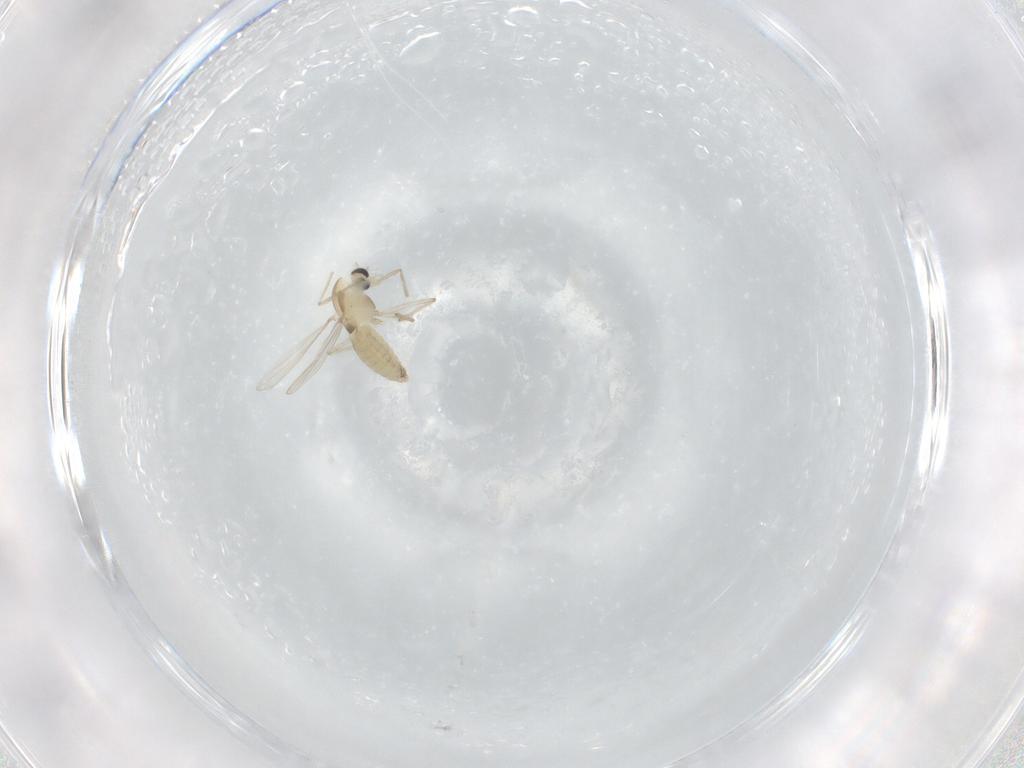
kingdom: Animalia
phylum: Arthropoda
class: Insecta
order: Diptera
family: Chironomidae
